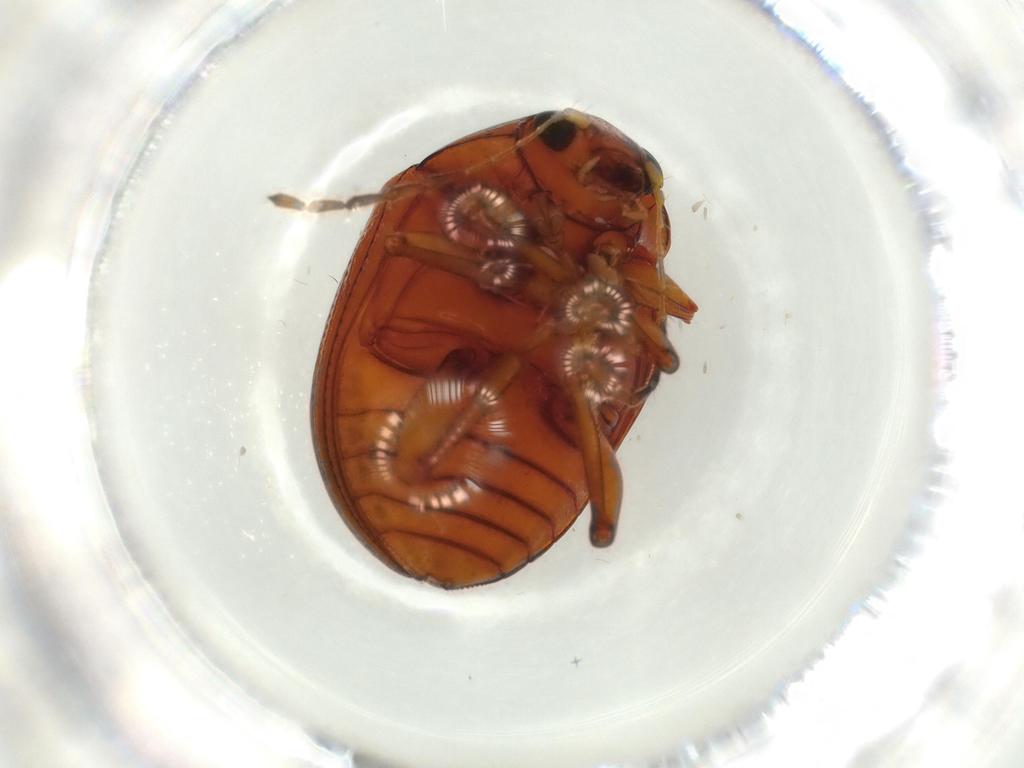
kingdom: Animalia
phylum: Arthropoda
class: Insecta
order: Coleoptera
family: Chrysomelidae
